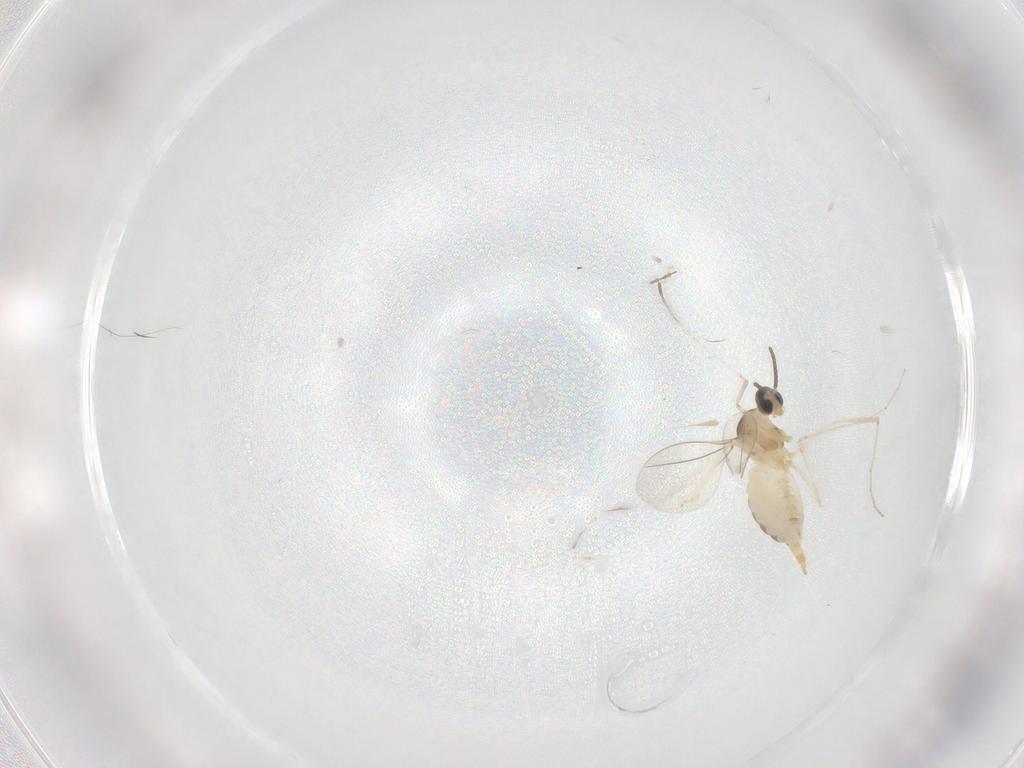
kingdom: Animalia
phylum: Arthropoda
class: Insecta
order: Diptera
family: Cecidomyiidae
